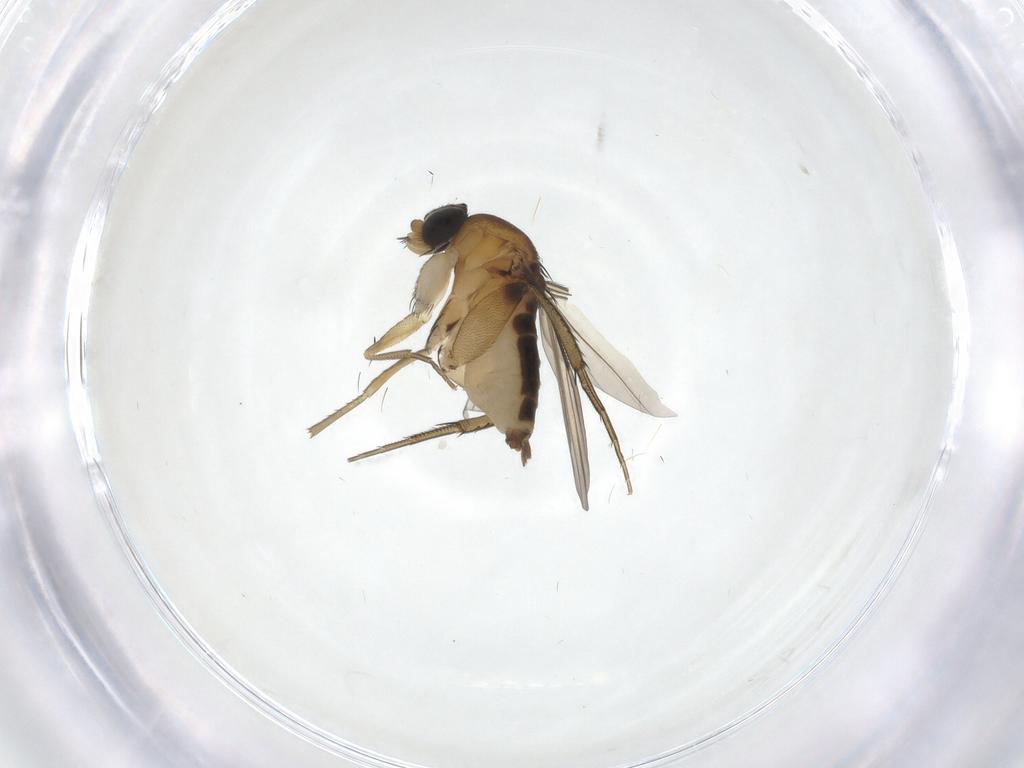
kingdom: Animalia
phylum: Arthropoda
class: Insecta
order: Diptera
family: Phoridae
